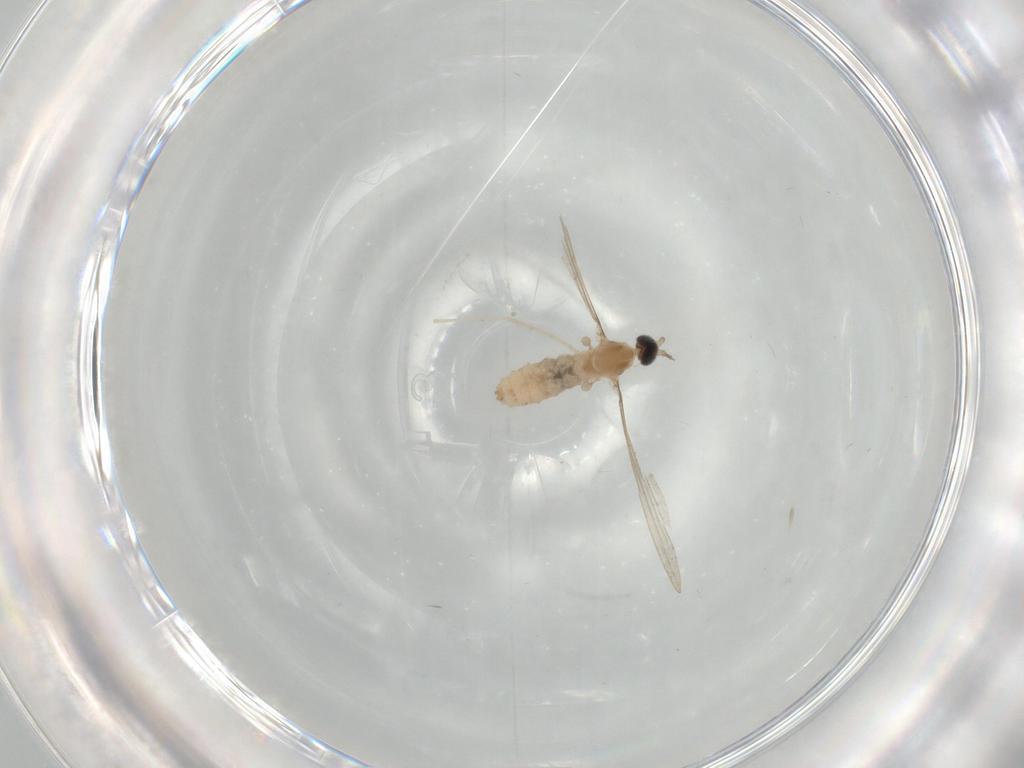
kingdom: Animalia
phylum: Arthropoda
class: Insecta
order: Diptera
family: Cecidomyiidae
